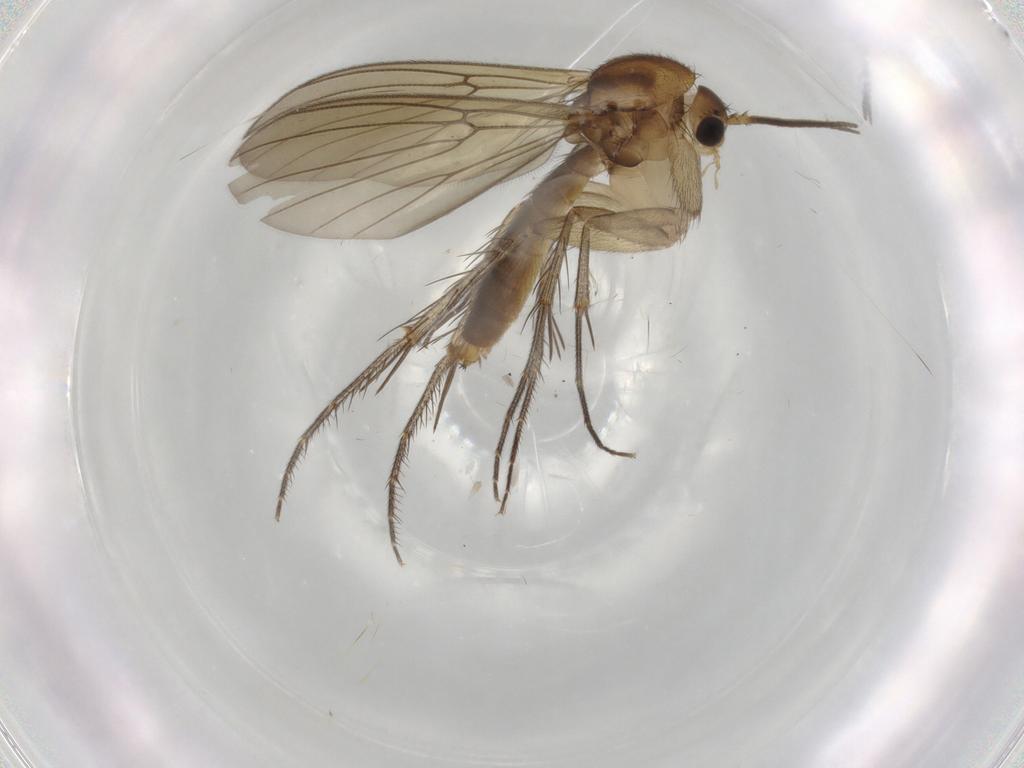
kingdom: Animalia
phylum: Arthropoda
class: Insecta
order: Diptera
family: Mycetophilidae
